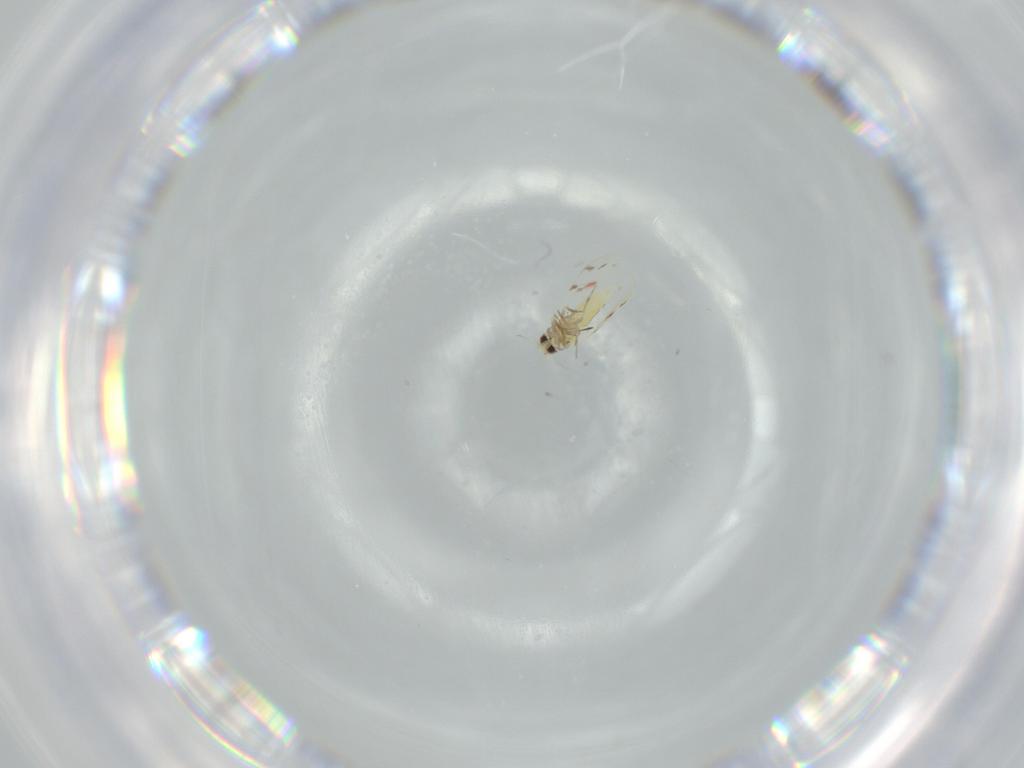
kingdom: Animalia
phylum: Arthropoda
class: Insecta
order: Hemiptera
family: Aleyrodidae
